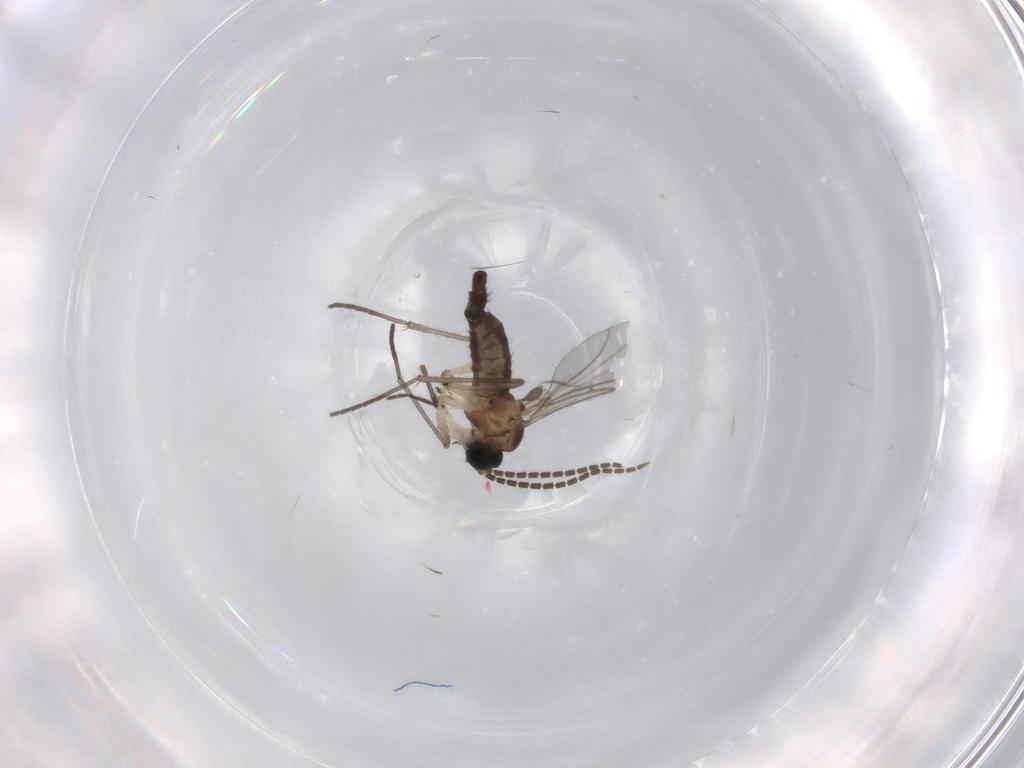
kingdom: Animalia
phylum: Arthropoda
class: Insecta
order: Diptera
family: Sciaridae
